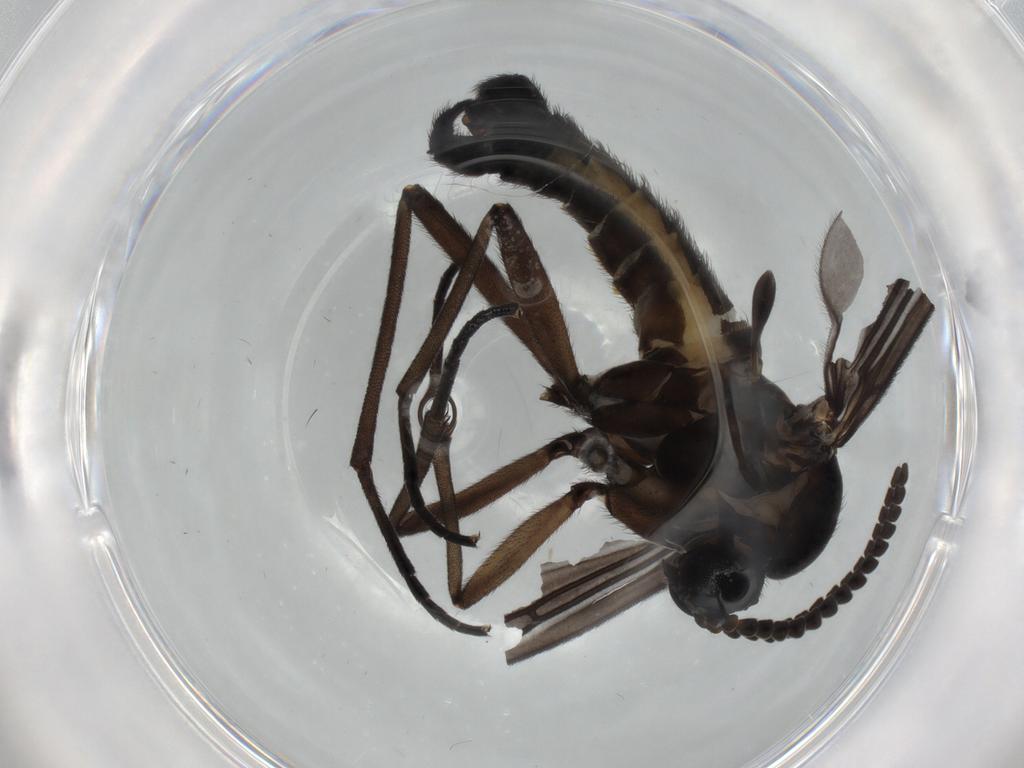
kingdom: Animalia
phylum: Arthropoda
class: Insecta
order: Diptera
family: Sciaridae
